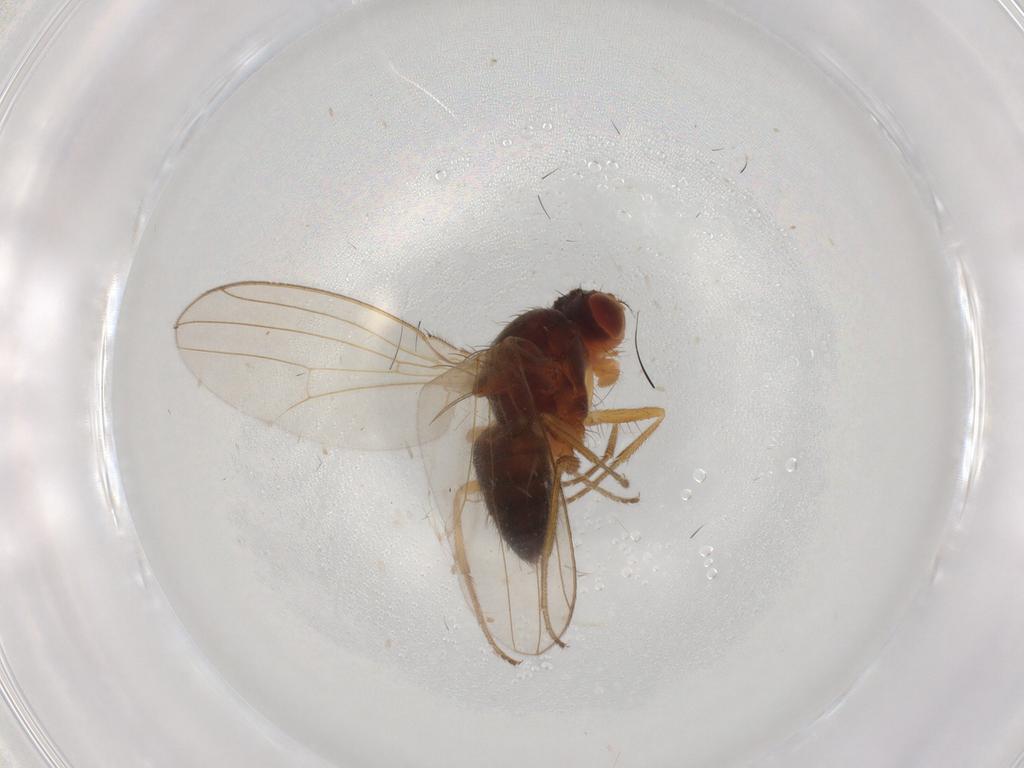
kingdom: Animalia
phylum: Arthropoda
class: Insecta
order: Diptera
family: Drosophilidae
